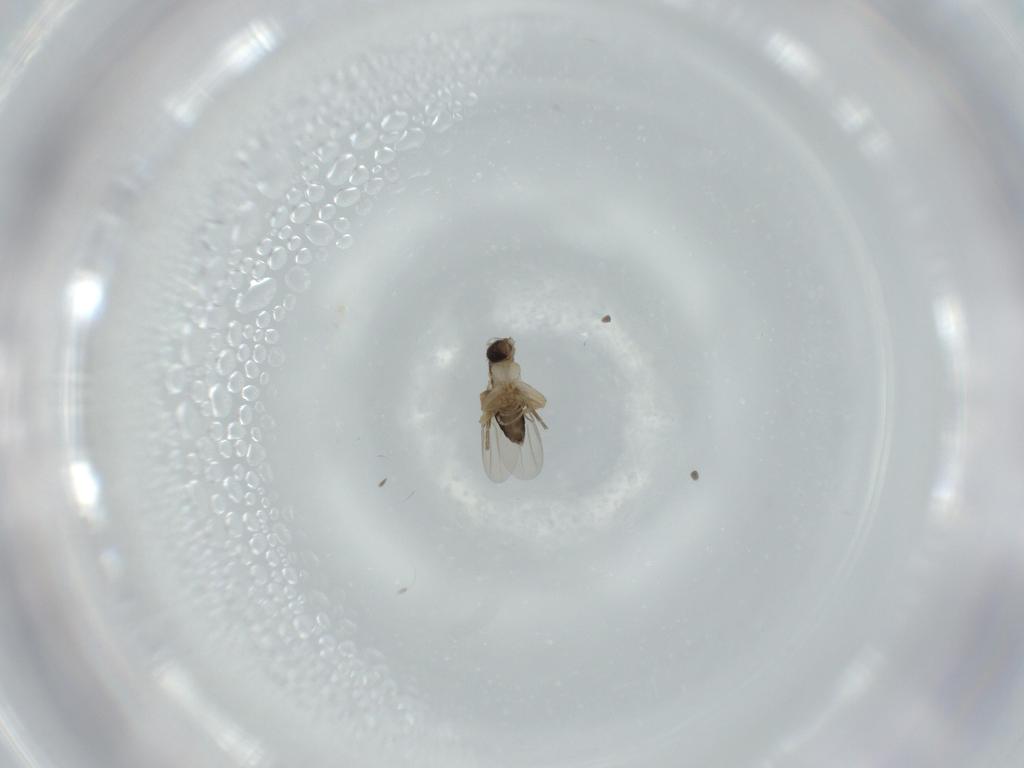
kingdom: Animalia
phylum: Arthropoda
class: Insecta
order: Diptera
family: Phoridae
